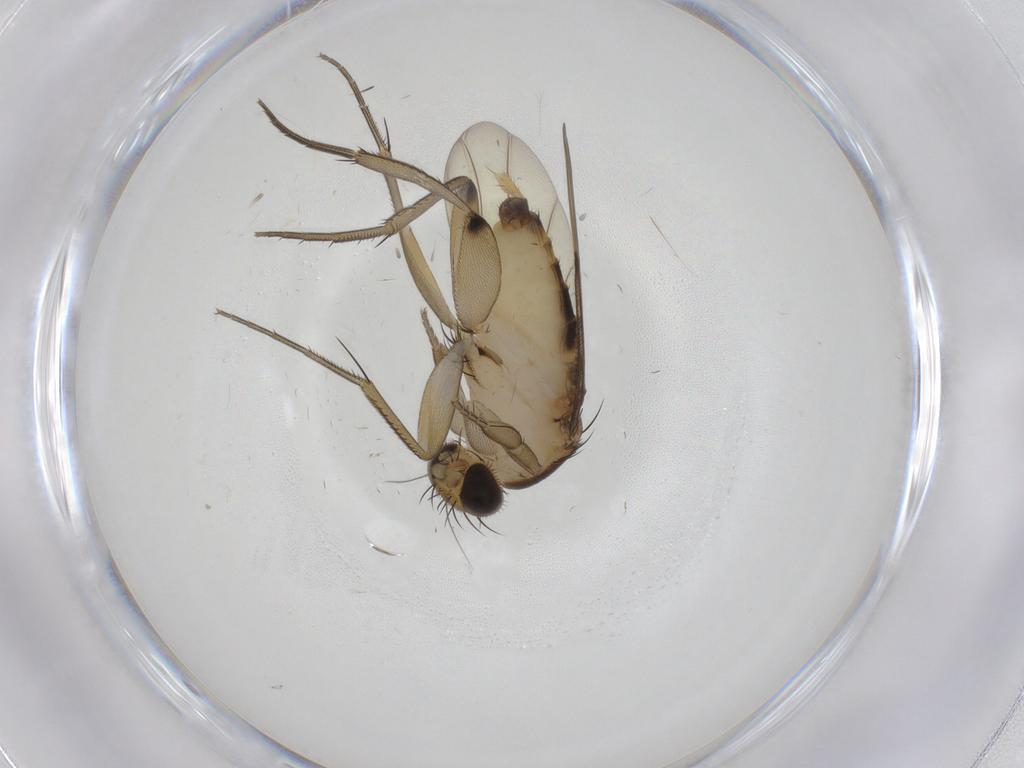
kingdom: Animalia
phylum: Arthropoda
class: Insecta
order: Diptera
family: Phoridae
